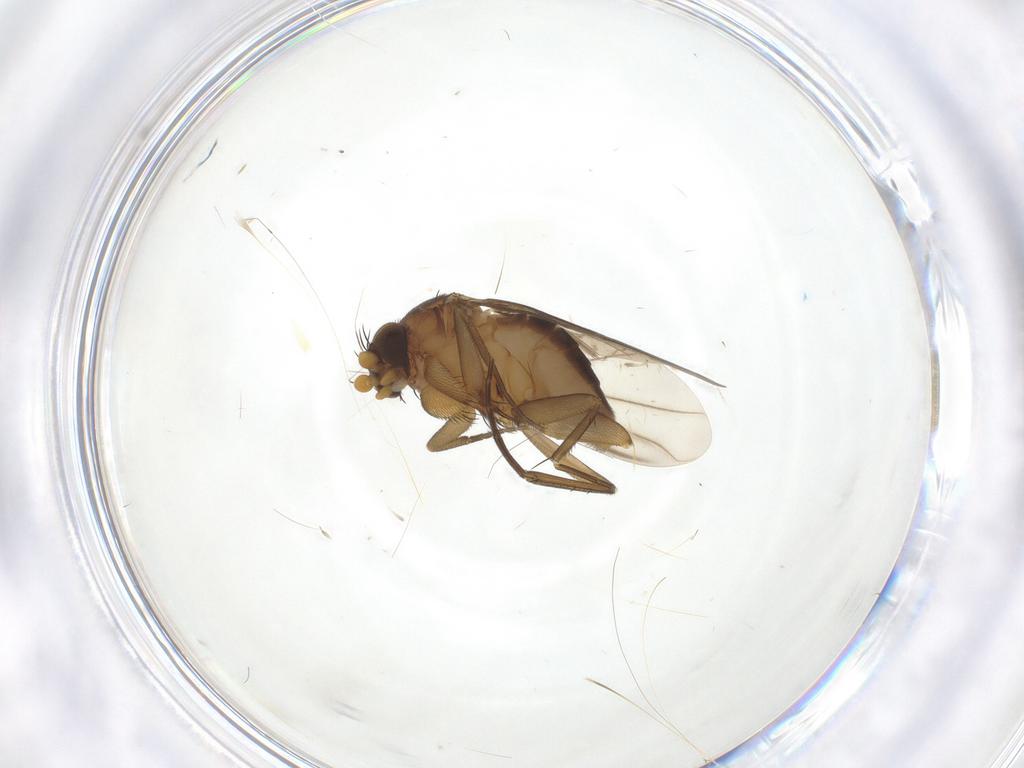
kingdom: Animalia
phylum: Arthropoda
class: Insecta
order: Diptera
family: Phoridae
